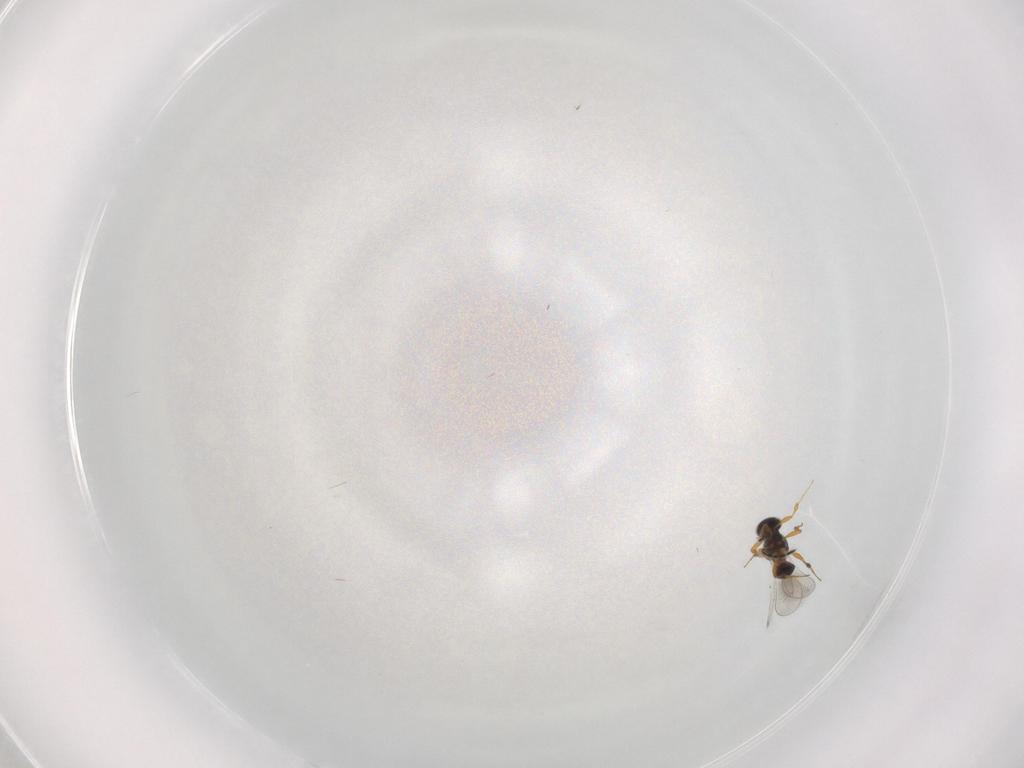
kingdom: Animalia
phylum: Arthropoda
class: Insecta
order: Hymenoptera
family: Platygastridae
